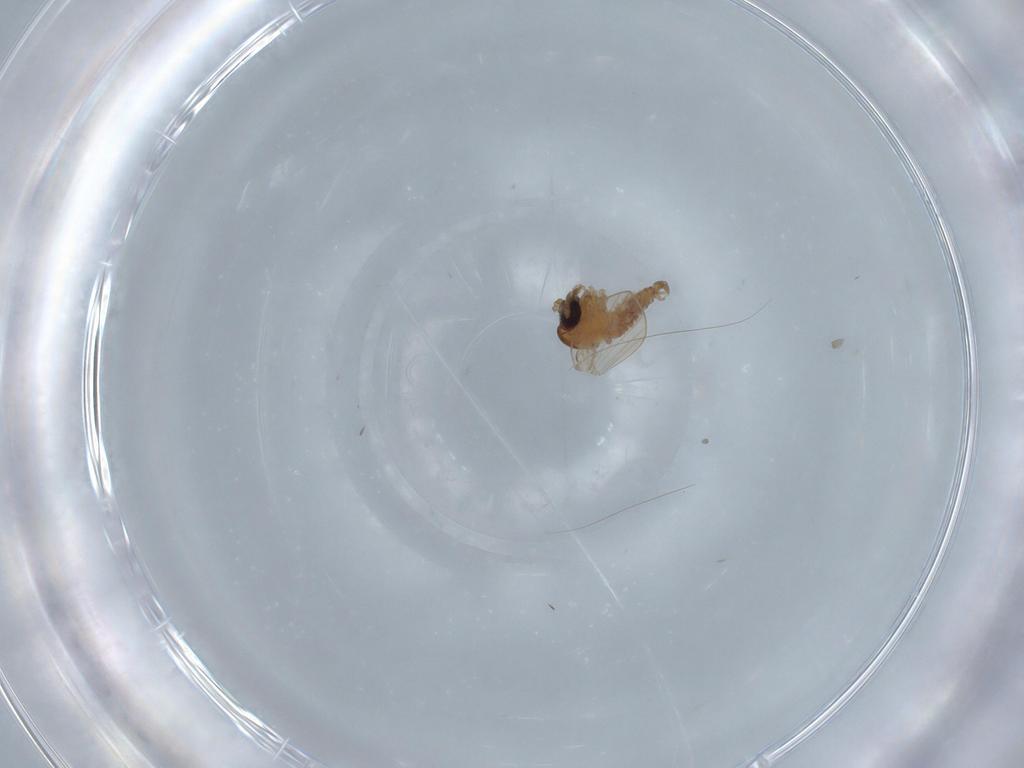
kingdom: Animalia
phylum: Arthropoda
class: Insecta
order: Diptera
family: Psychodidae
